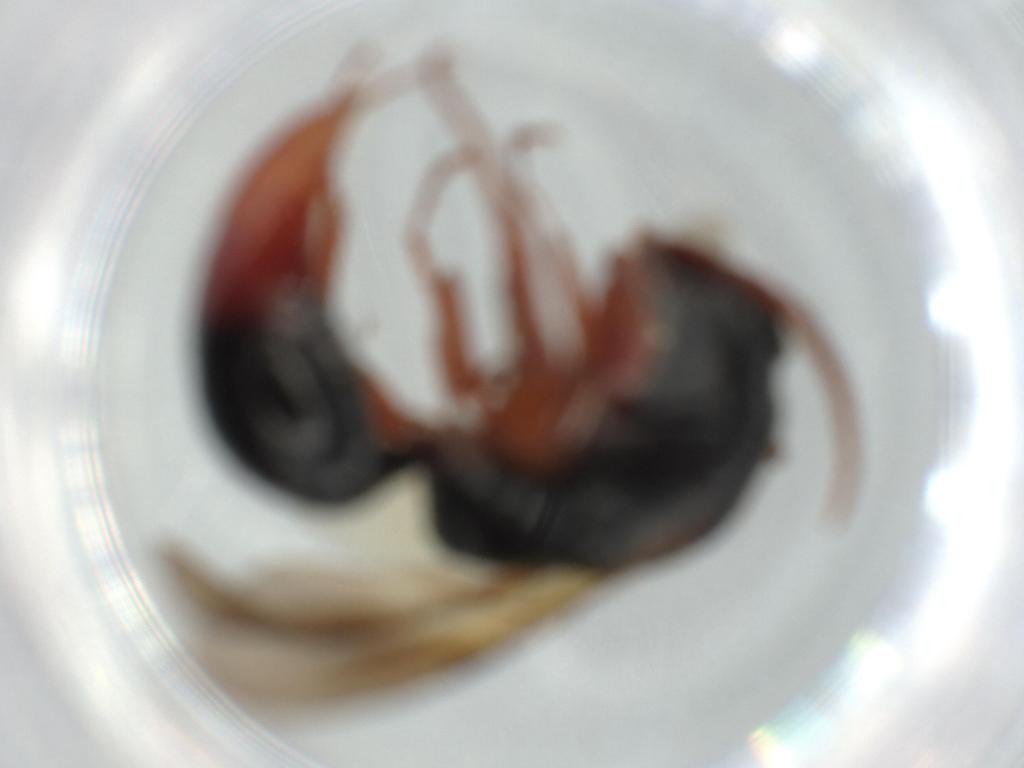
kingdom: Animalia
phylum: Arthropoda
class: Insecta
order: Hymenoptera
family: Bethylidae
